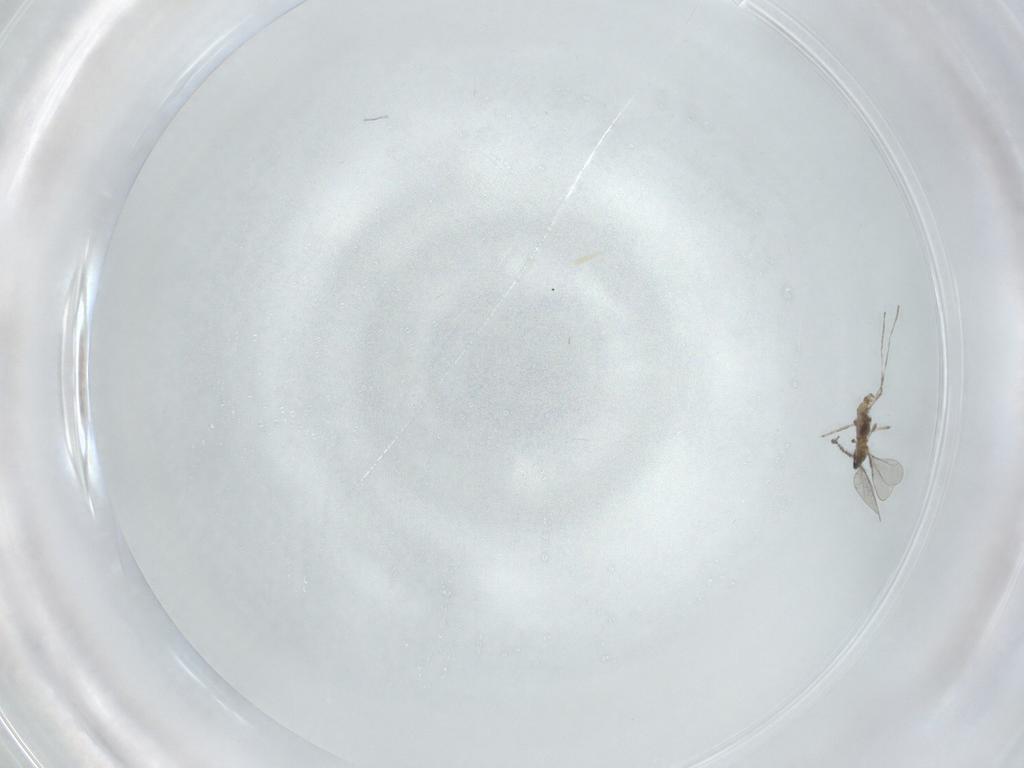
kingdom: Animalia
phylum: Arthropoda
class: Insecta
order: Diptera
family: Cecidomyiidae
